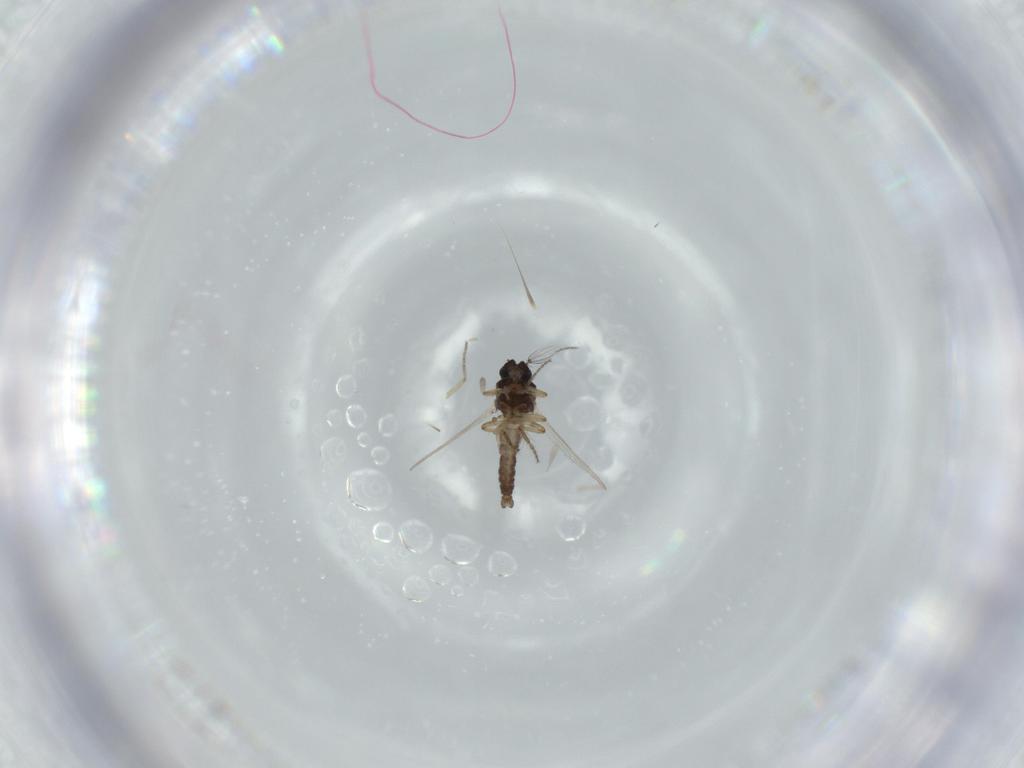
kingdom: Animalia
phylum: Arthropoda
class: Insecta
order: Diptera
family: Ceratopogonidae
